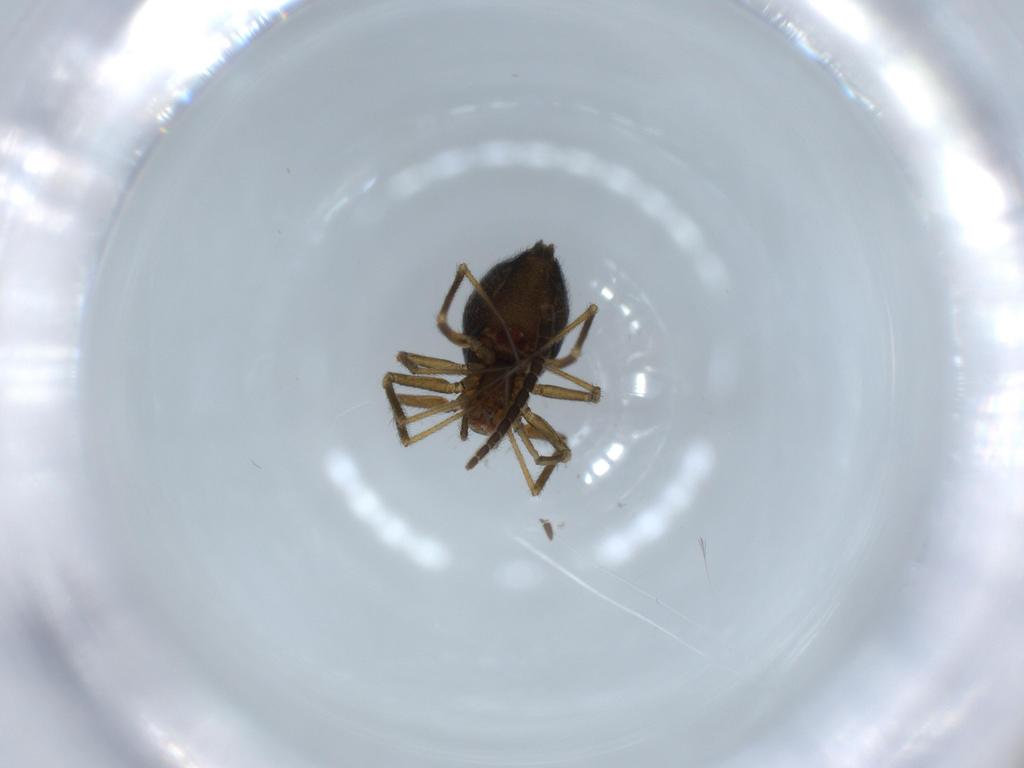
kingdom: Animalia
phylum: Arthropoda
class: Arachnida
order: Araneae
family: Linyphiidae
